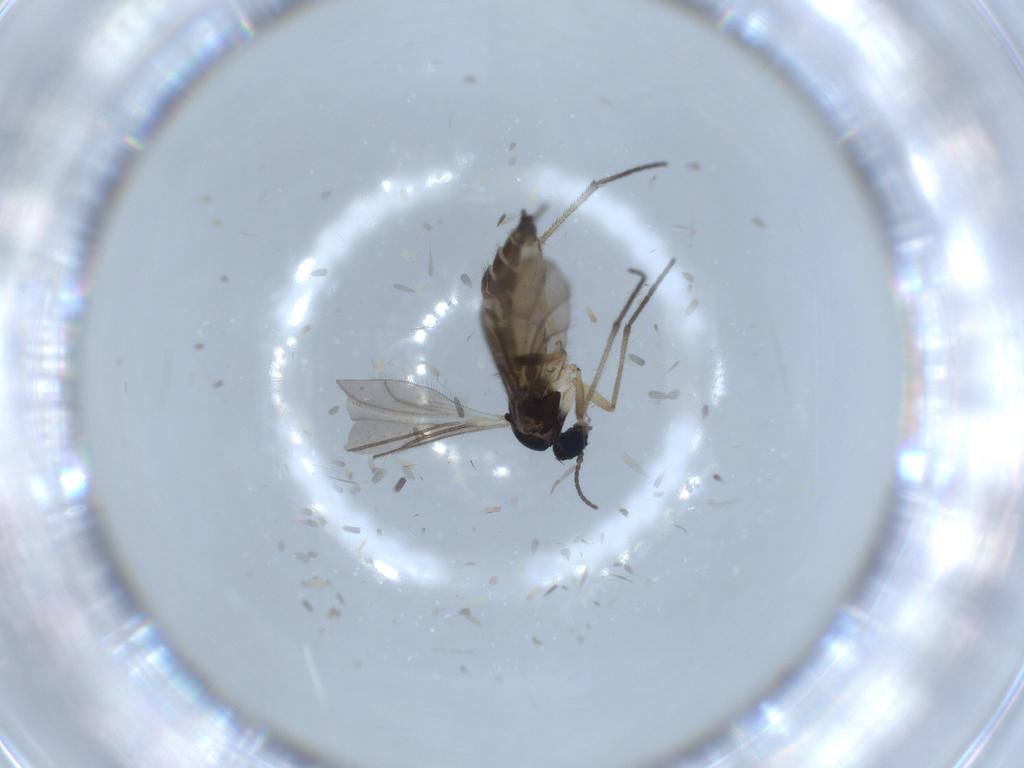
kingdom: Animalia
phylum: Arthropoda
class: Insecta
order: Diptera
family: Sciaridae
